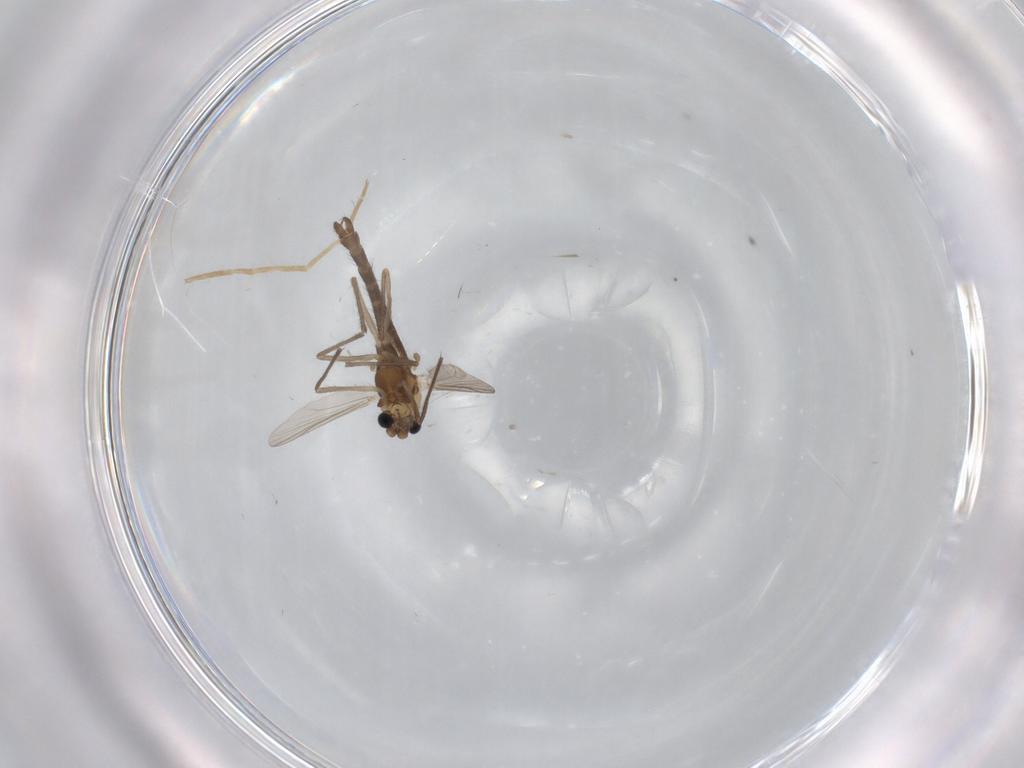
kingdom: Animalia
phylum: Arthropoda
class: Insecta
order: Diptera
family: Chironomidae
